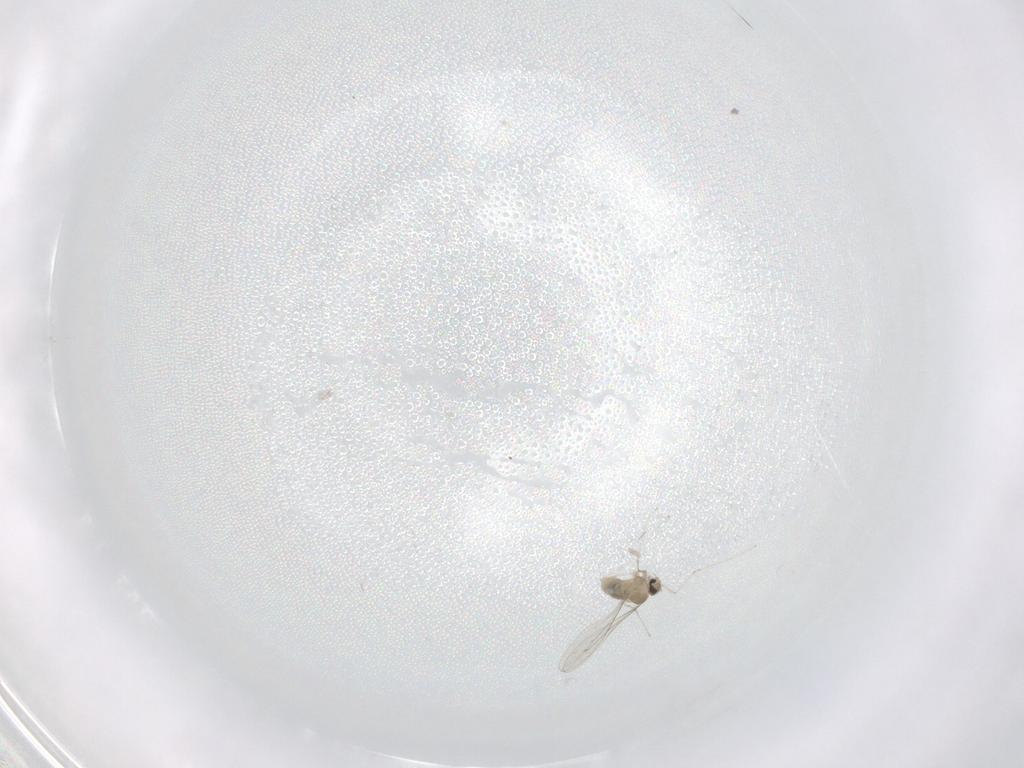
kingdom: Animalia
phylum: Arthropoda
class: Insecta
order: Diptera
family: Cecidomyiidae
